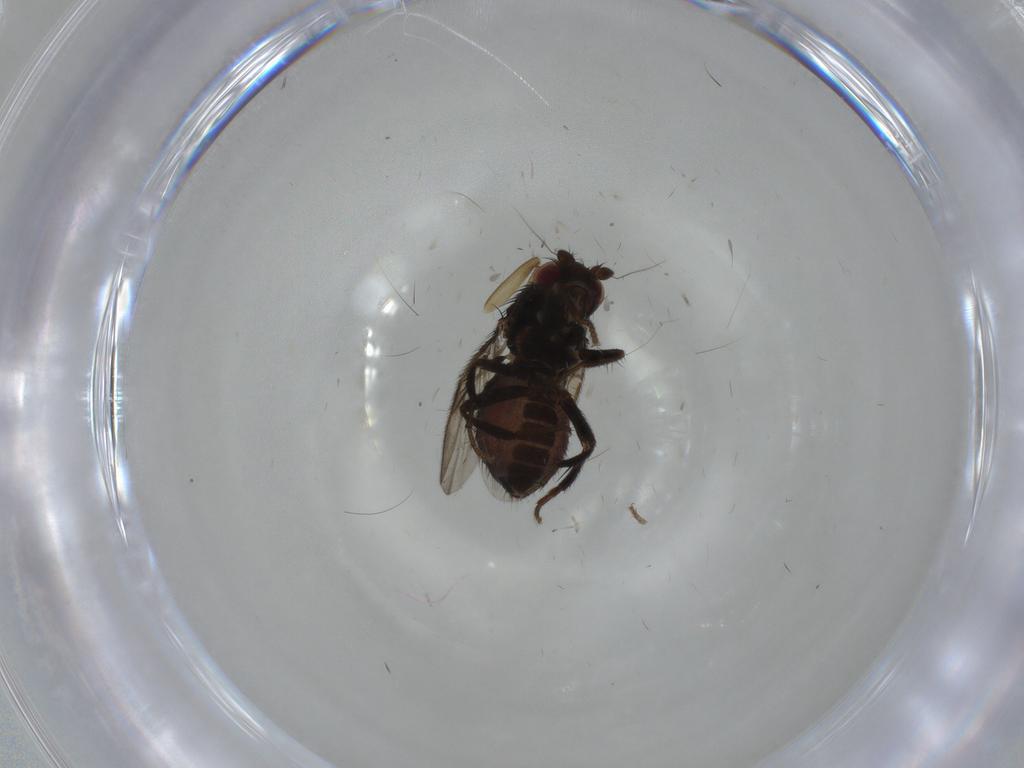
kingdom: Animalia
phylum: Arthropoda
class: Insecta
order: Diptera
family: Sphaeroceridae
